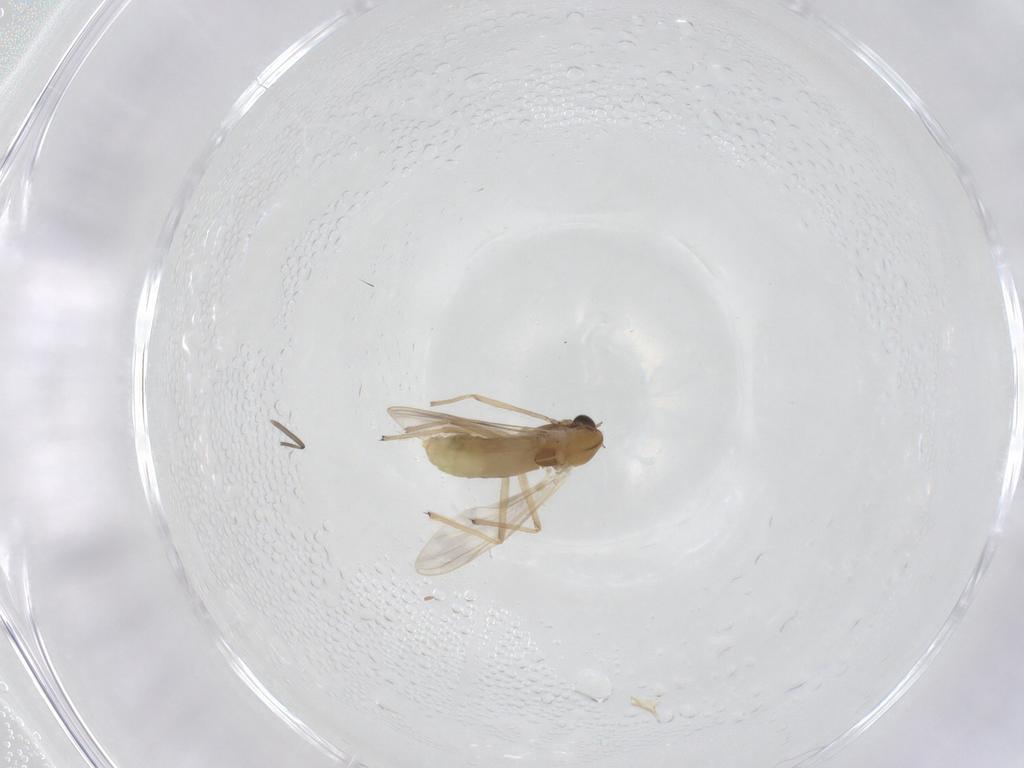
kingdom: Animalia
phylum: Arthropoda
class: Insecta
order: Diptera
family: Chironomidae
